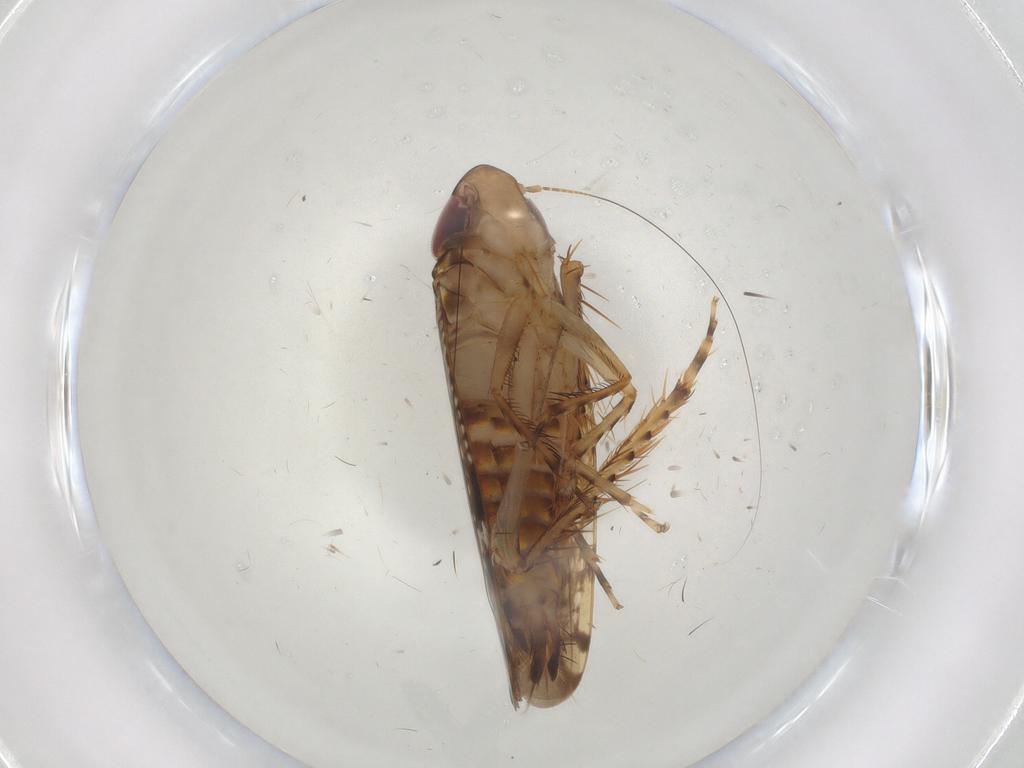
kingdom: Animalia
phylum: Arthropoda
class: Insecta
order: Hemiptera
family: Cicadellidae
